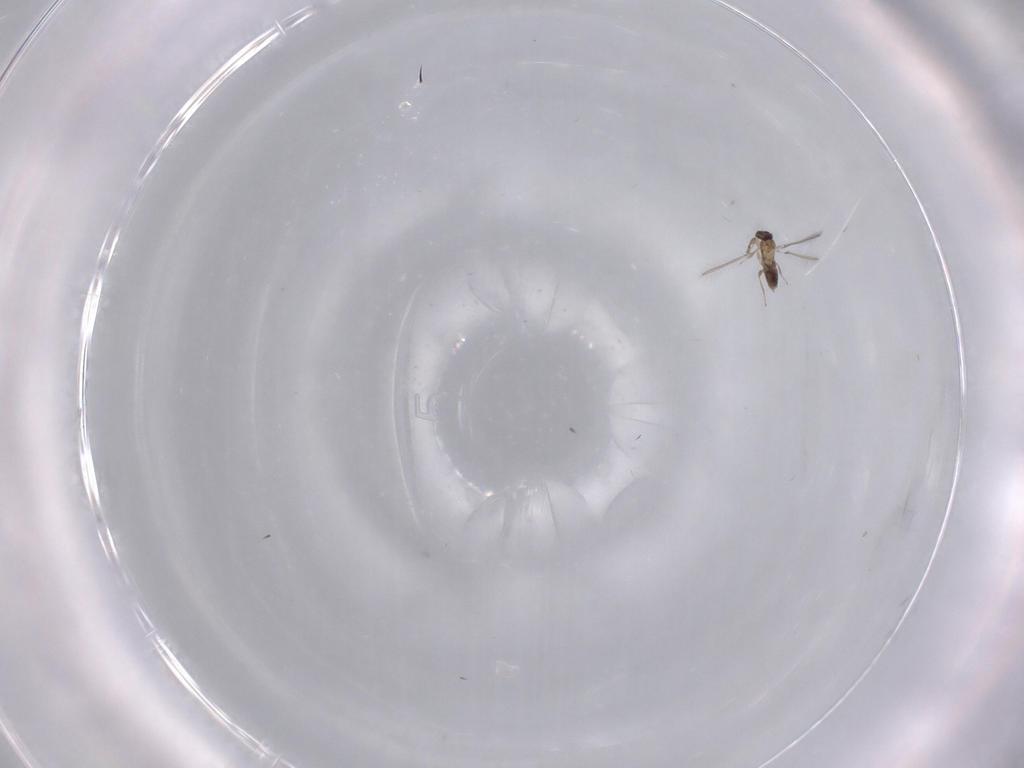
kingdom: Animalia
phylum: Arthropoda
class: Insecta
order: Hymenoptera
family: Mymaridae
